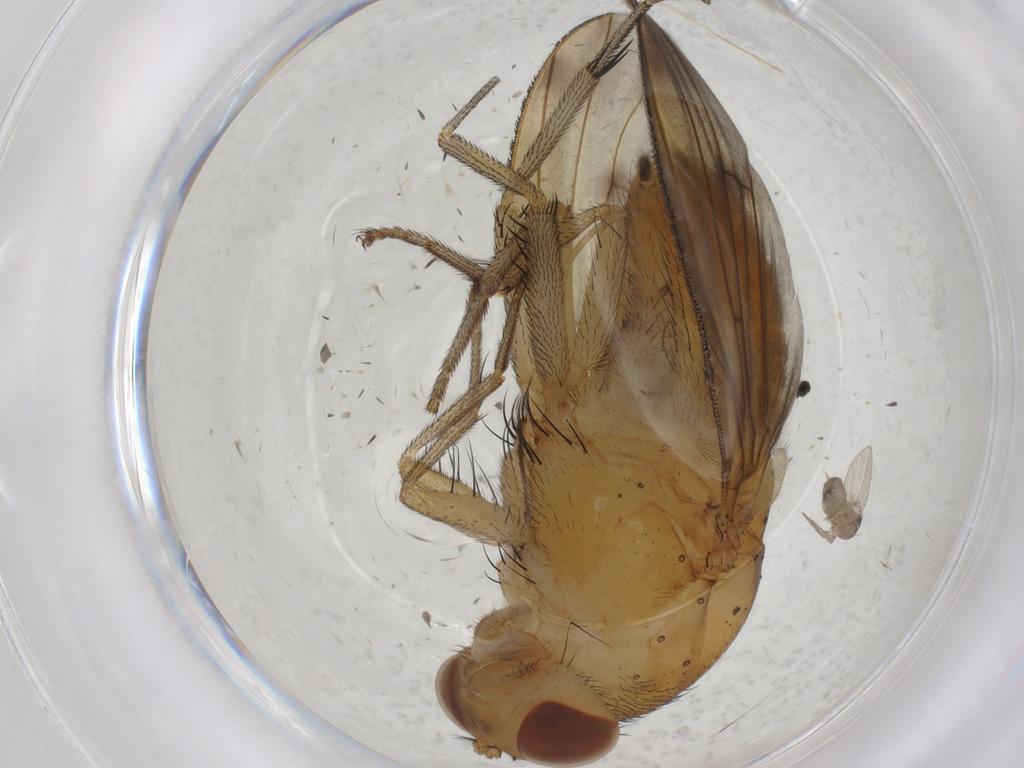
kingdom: Animalia
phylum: Arthropoda
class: Insecta
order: Diptera
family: Psychodidae
